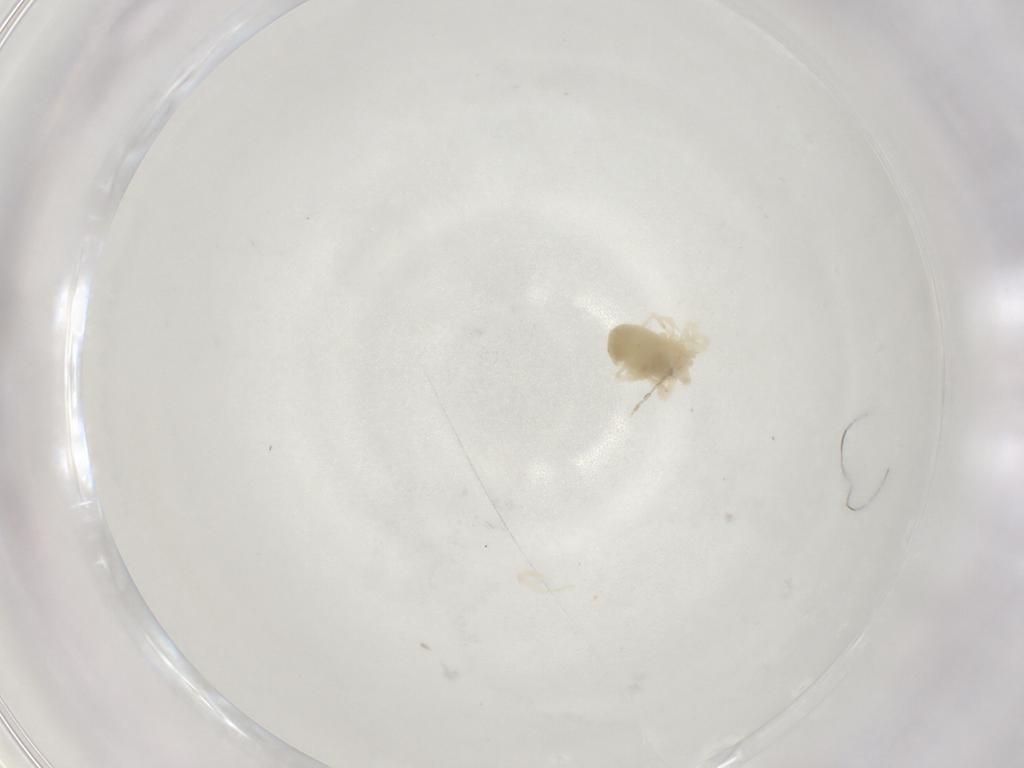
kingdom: Animalia
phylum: Arthropoda
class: Arachnida
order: Trombidiformes
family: Anystidae
